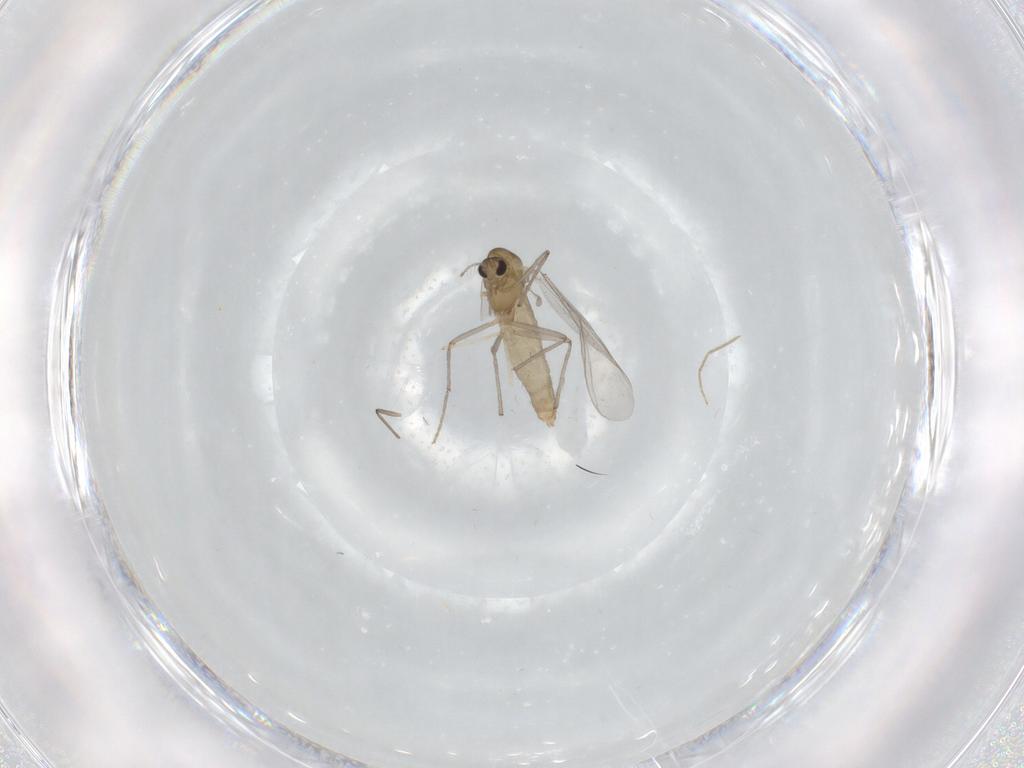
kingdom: Animalia
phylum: Arthropoda
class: Insecta
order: Diptera
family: Chironomidae
